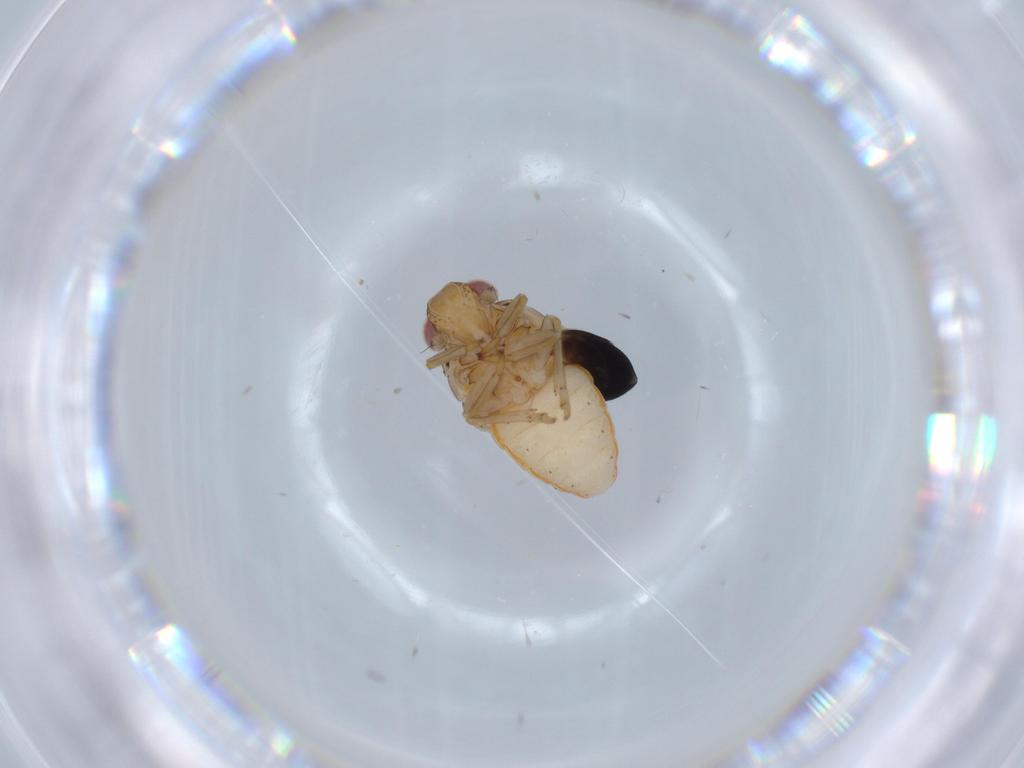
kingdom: Animalia
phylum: Arthropoda
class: Insecta
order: Hemiptera
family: Issidae
